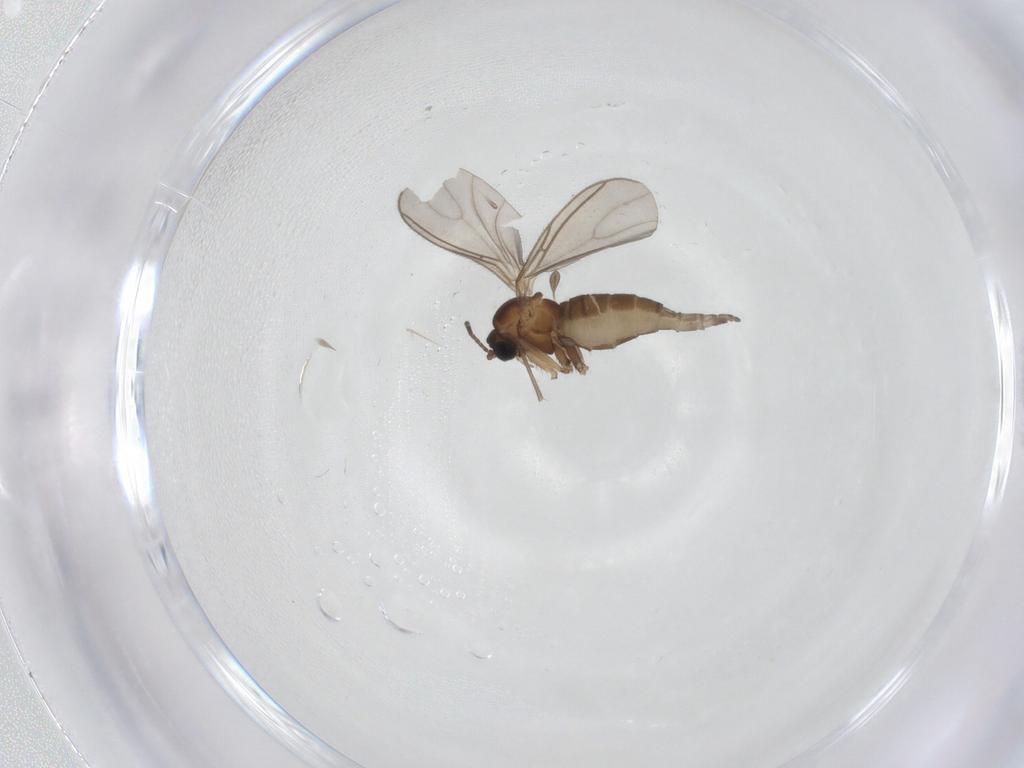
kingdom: Animalia
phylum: Arthropoda
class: Insecta
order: Diptera
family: Sciaridae
